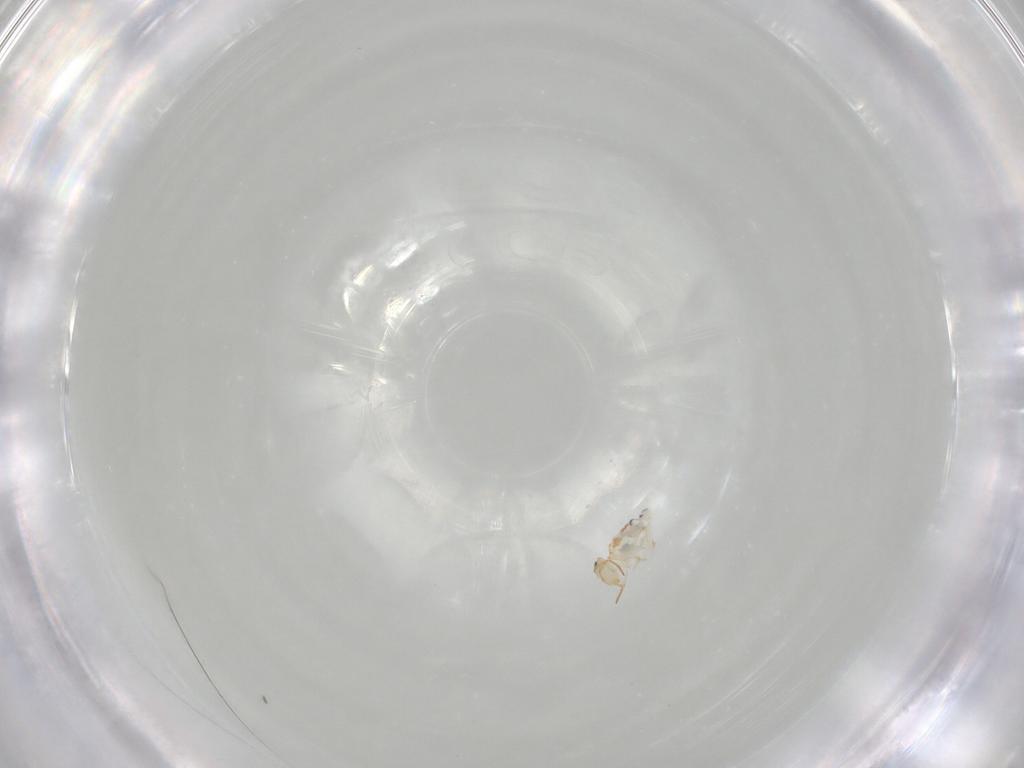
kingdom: Animalia
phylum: Arthropoda
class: Collembola
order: Symphypleona
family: Bourletiellidae
